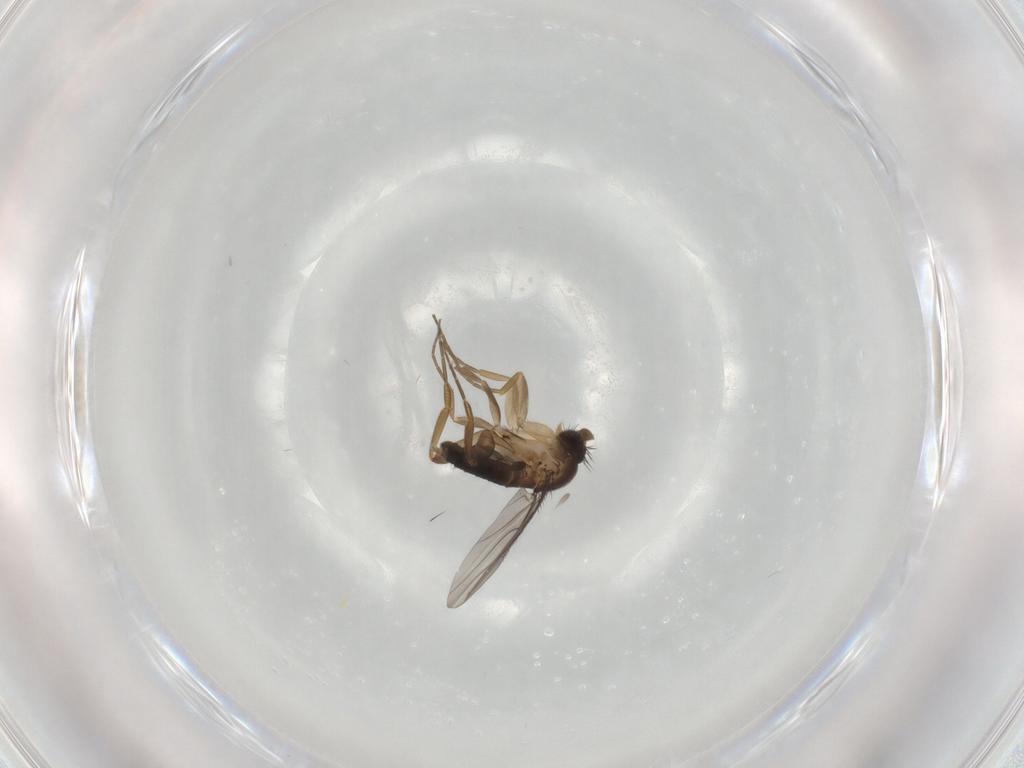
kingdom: Animalia
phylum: Arthropoda
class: Insecta
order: Diptera
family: Phoridae
